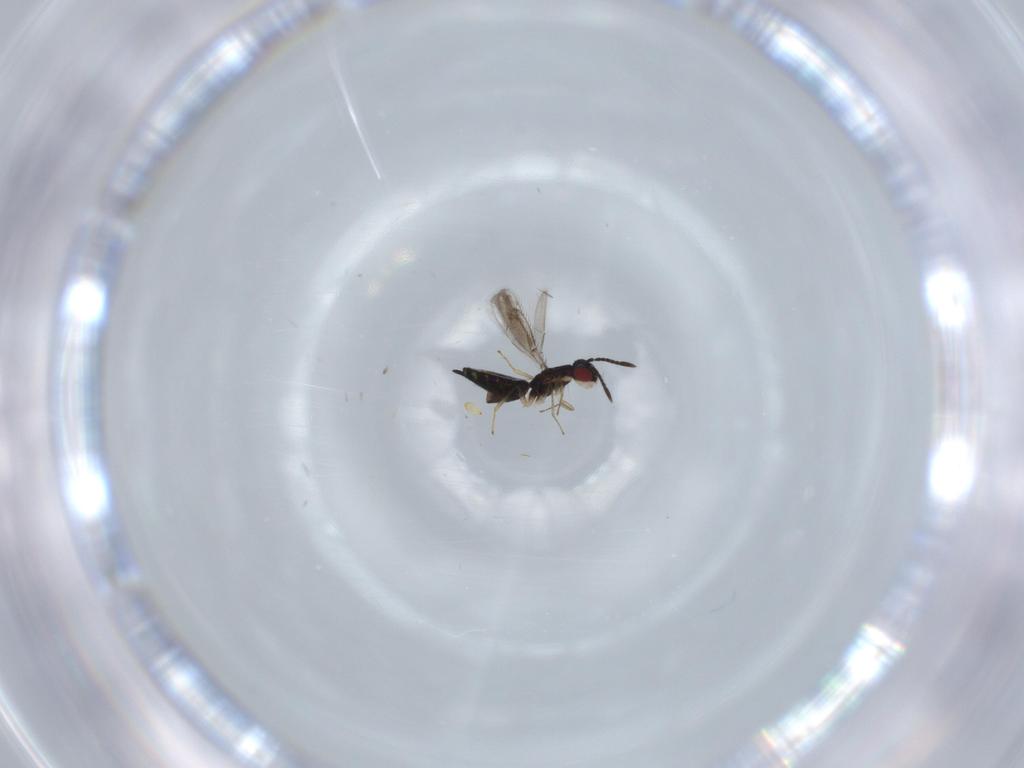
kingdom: Animalia
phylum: Arthropoda
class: Insecta
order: Hymenoptera
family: Pteromalidae
